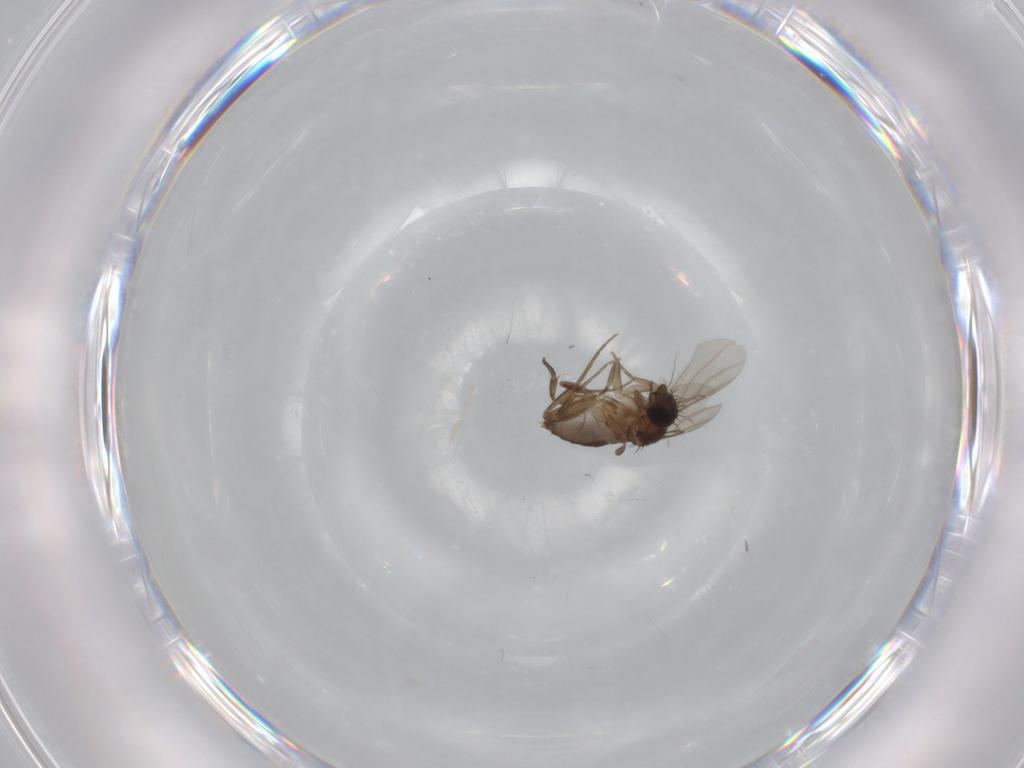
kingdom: Animalia
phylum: Arthropoda
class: Insecta
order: Diptera
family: Phoridae
